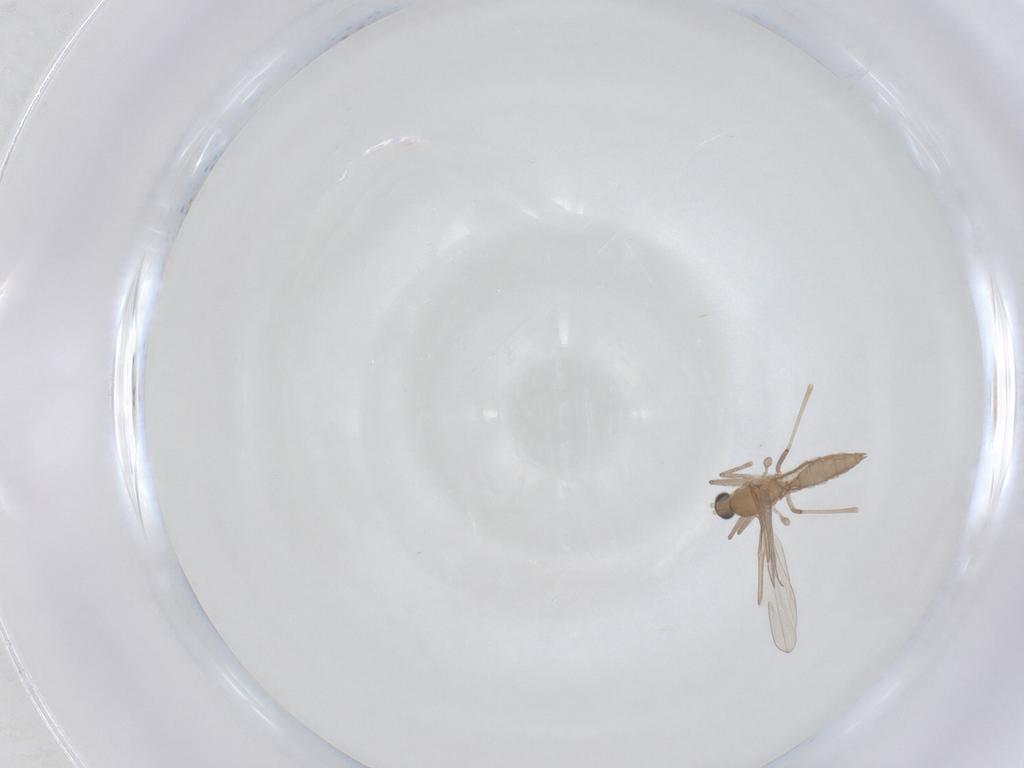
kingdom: Animalia
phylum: Arthropoda
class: Insecta
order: Diptera
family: Cecidomyiidae
